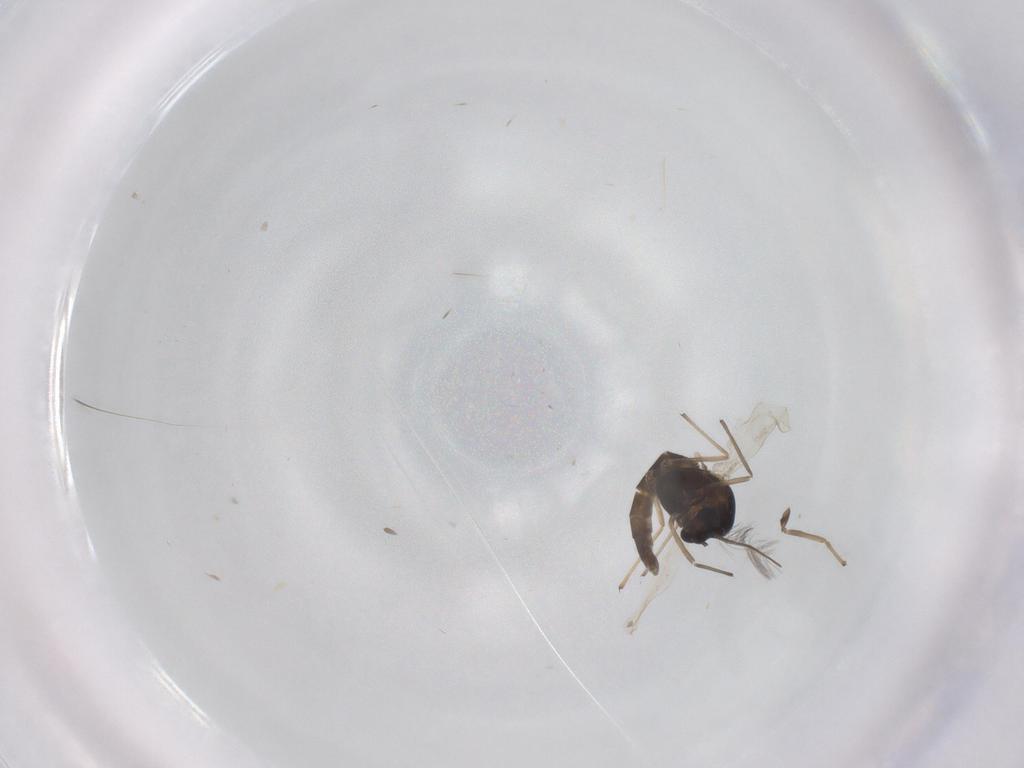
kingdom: Animalia
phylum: Arthropoda
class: Insecta
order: Diptera
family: Chironomidae
